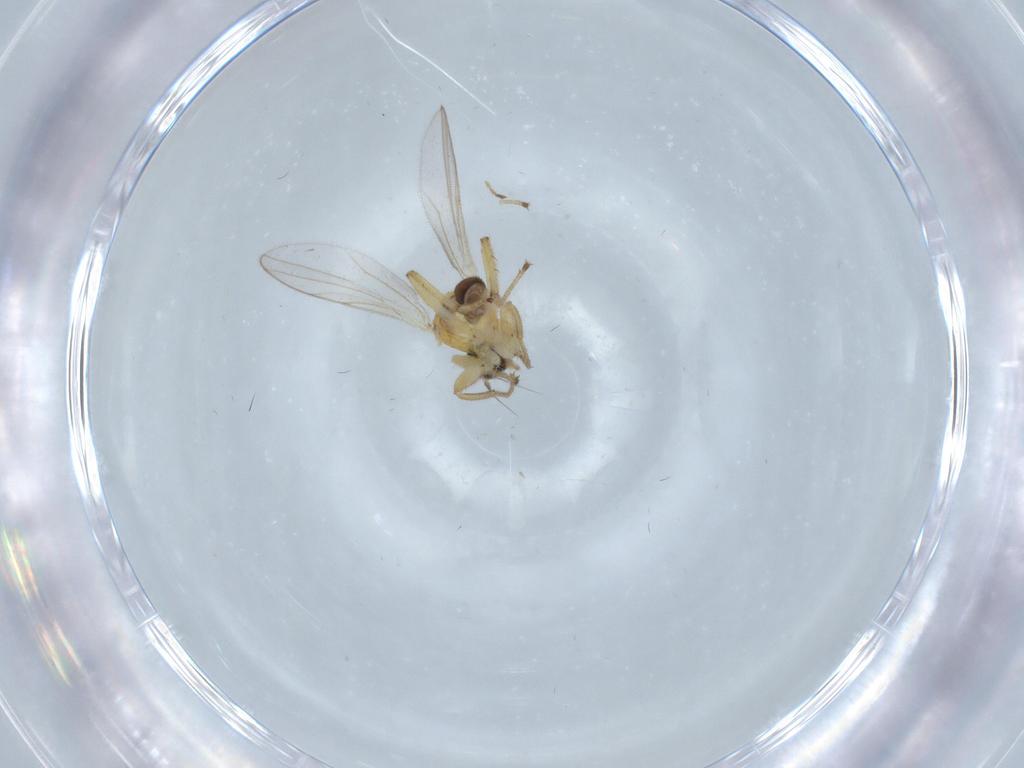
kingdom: Animalia
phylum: Arthropoda
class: Insecta
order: Diptera
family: Hybotidae
